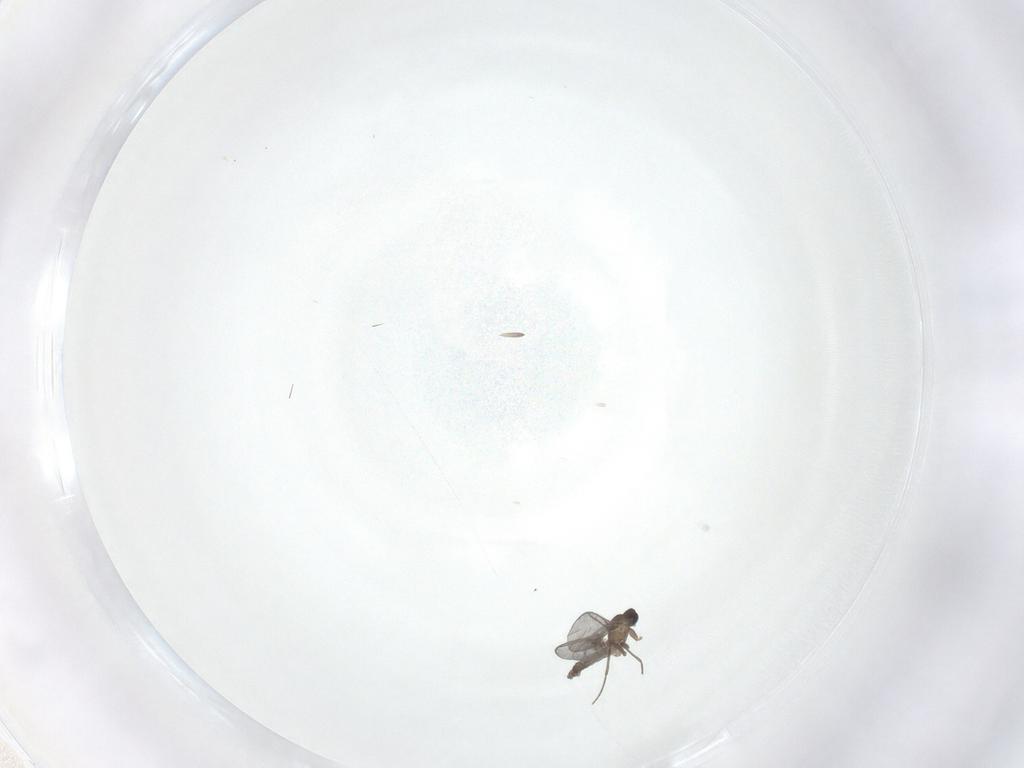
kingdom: Animalia
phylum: Arthropoda
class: Insecta
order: Diptera
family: Sciaridae
